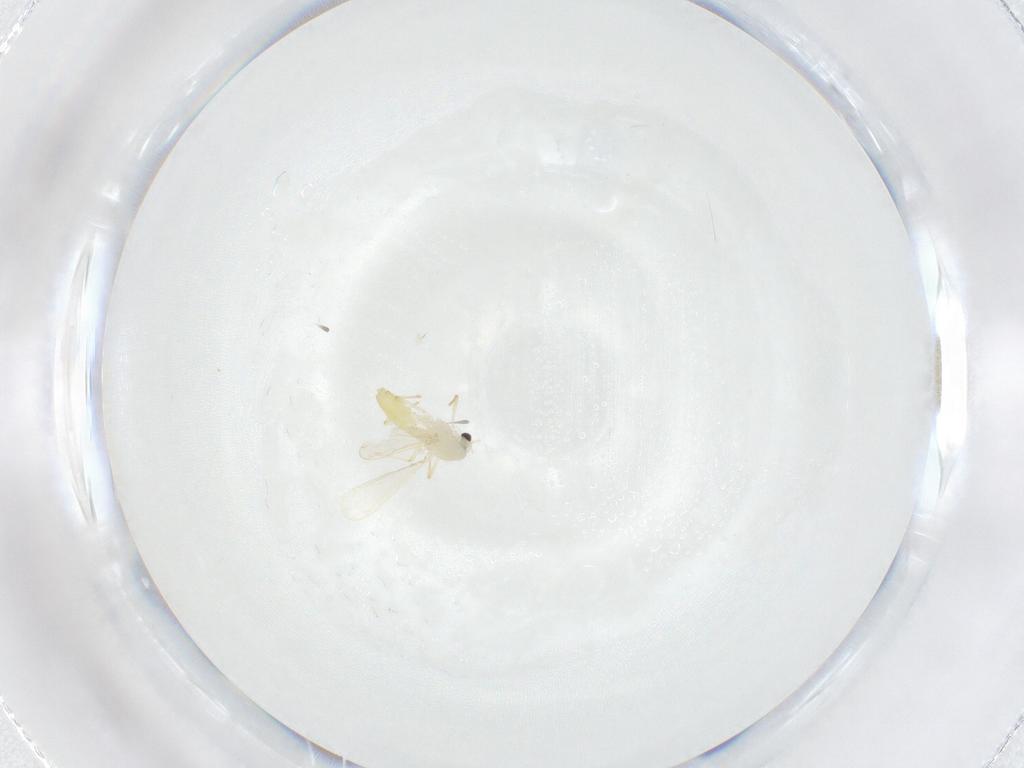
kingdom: Animalia
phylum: Arthropoda
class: Insecta
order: Diptera
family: Chironomidae
